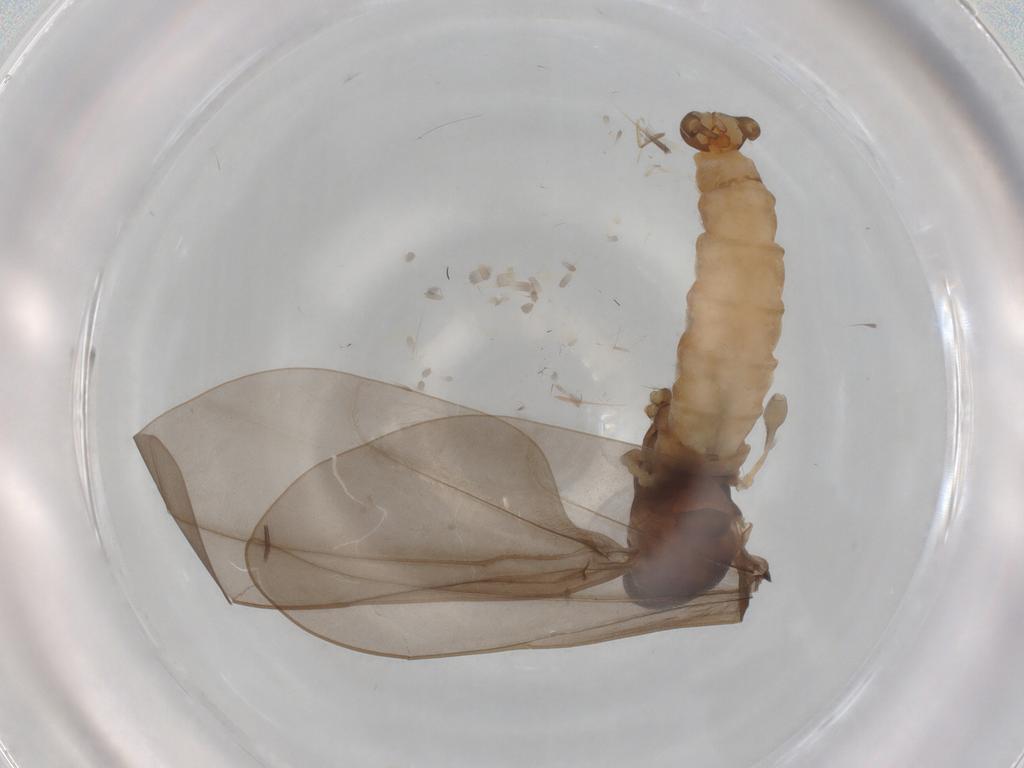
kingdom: Animalia
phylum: Arthropoda
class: Insecta
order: Diptera
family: Cecidomyiidae
